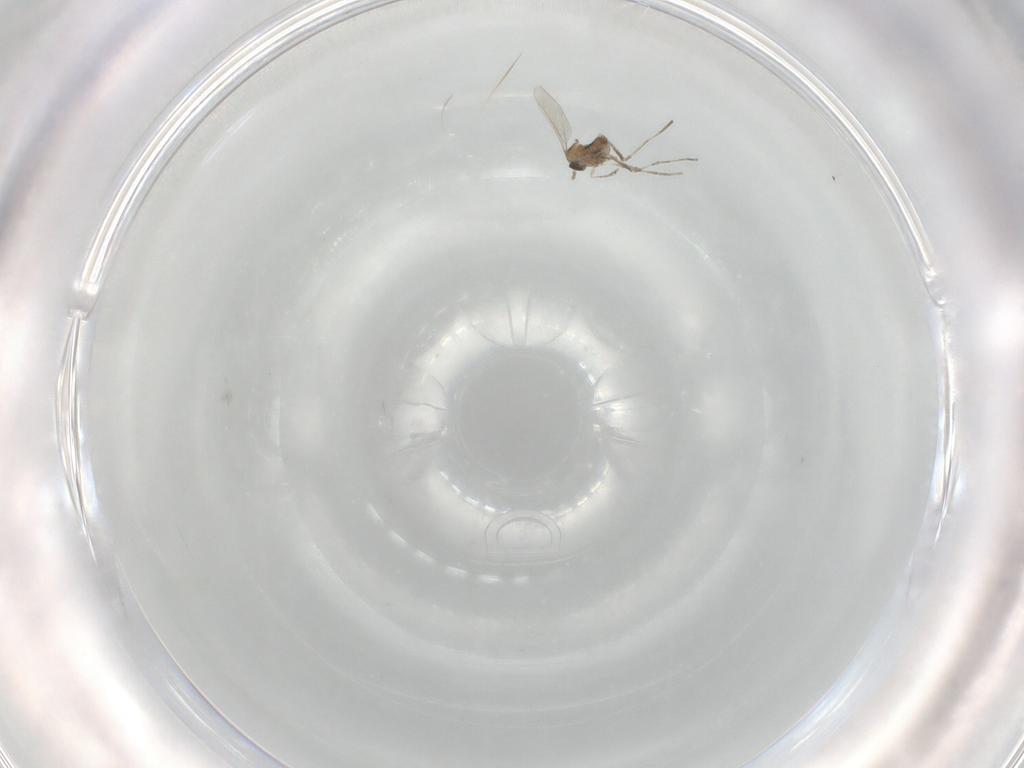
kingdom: Animalia
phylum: Arthropoda
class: Insecta
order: Diptera
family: Cecidomyiidae
